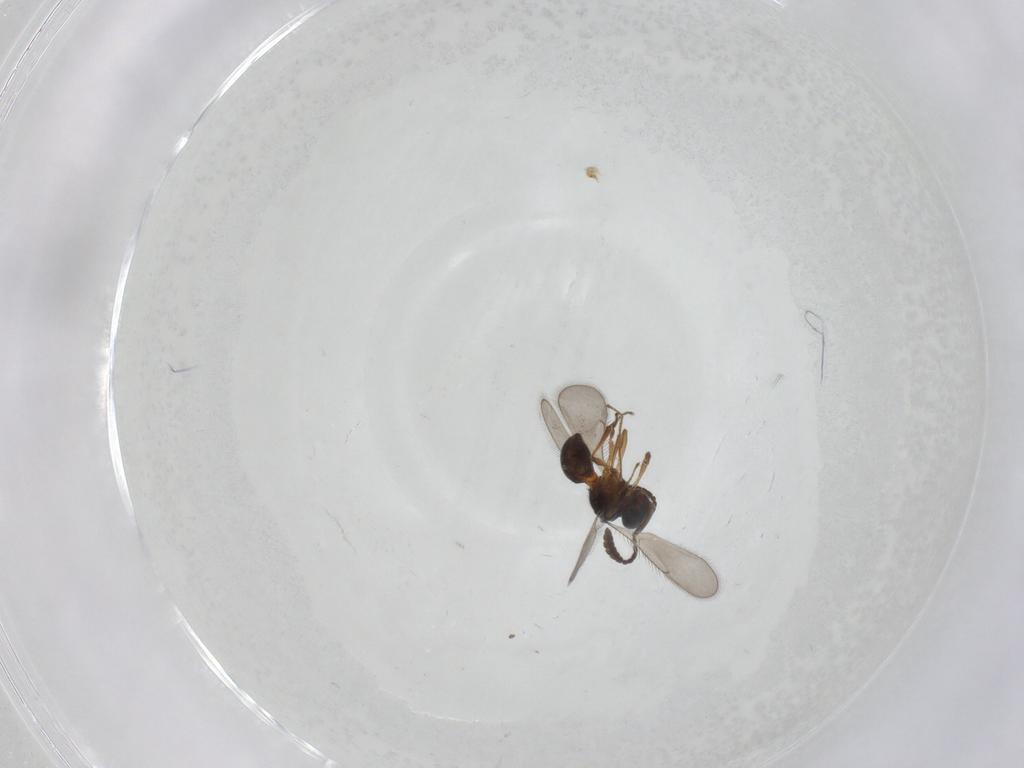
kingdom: Animalia
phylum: Arthropoda
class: Insecta
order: Hymenoptera
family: Scelionidae
